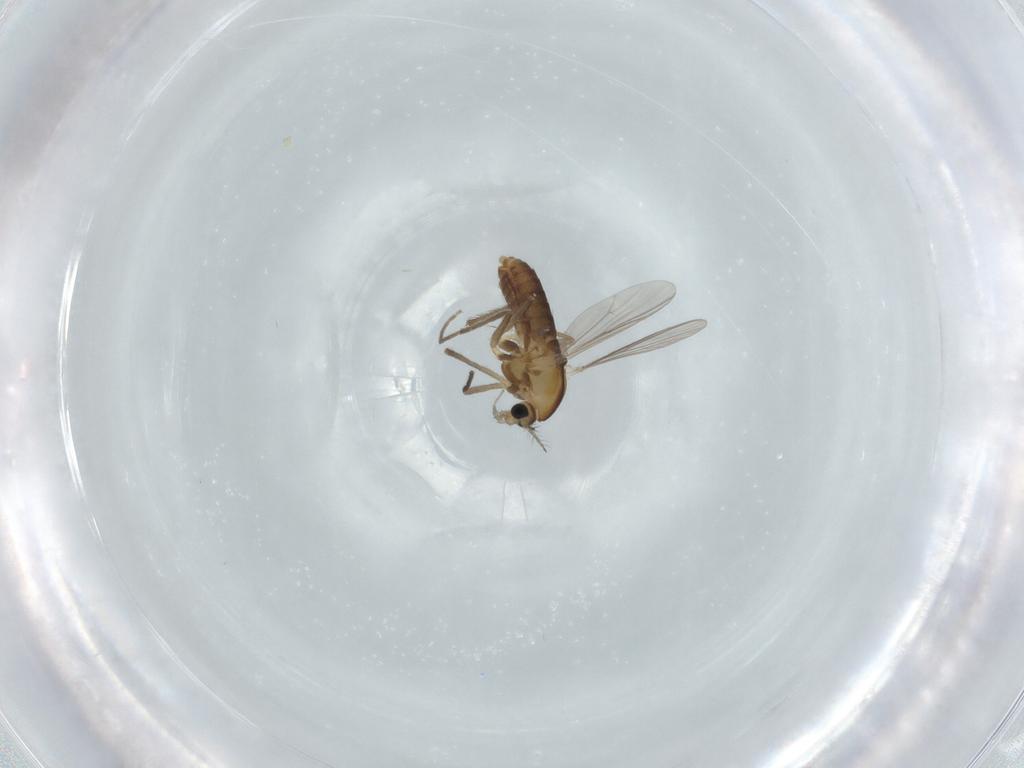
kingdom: Animalia
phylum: Arthropoda
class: Insecta
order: Diptera
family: Chironomidae
